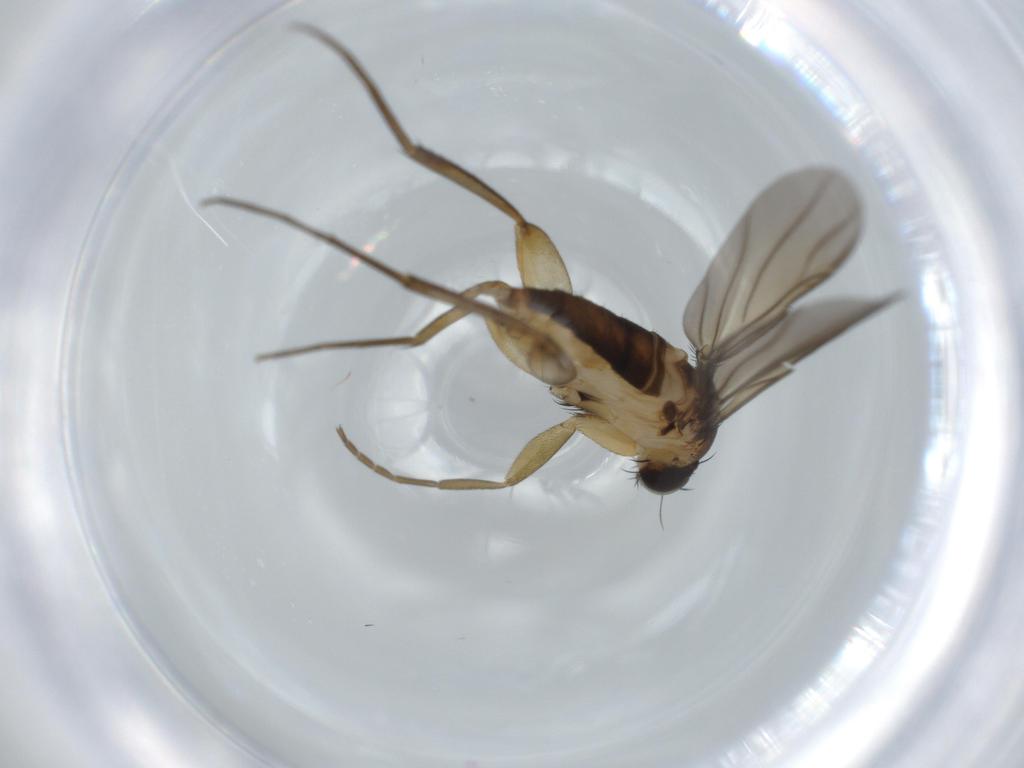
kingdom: Animalia
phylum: Arthropoda
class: Insecta
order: Diptera
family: Phoridae
